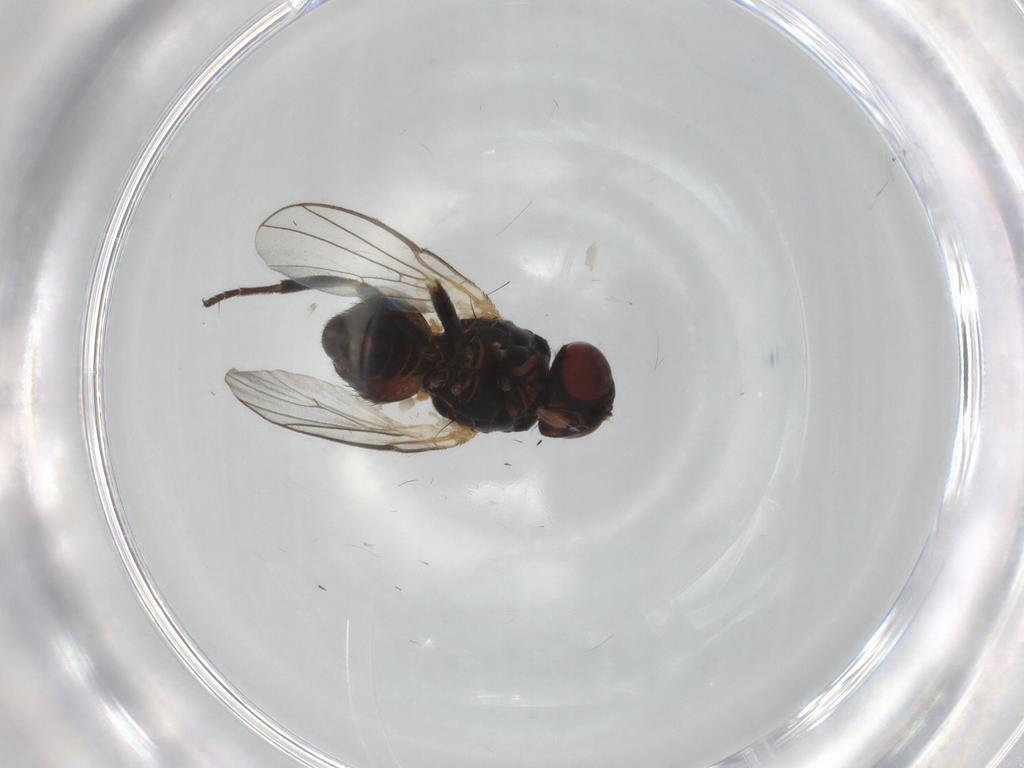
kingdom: Animalia
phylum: Arthropoda
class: Insecta
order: Diptera
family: Agromyzidae
